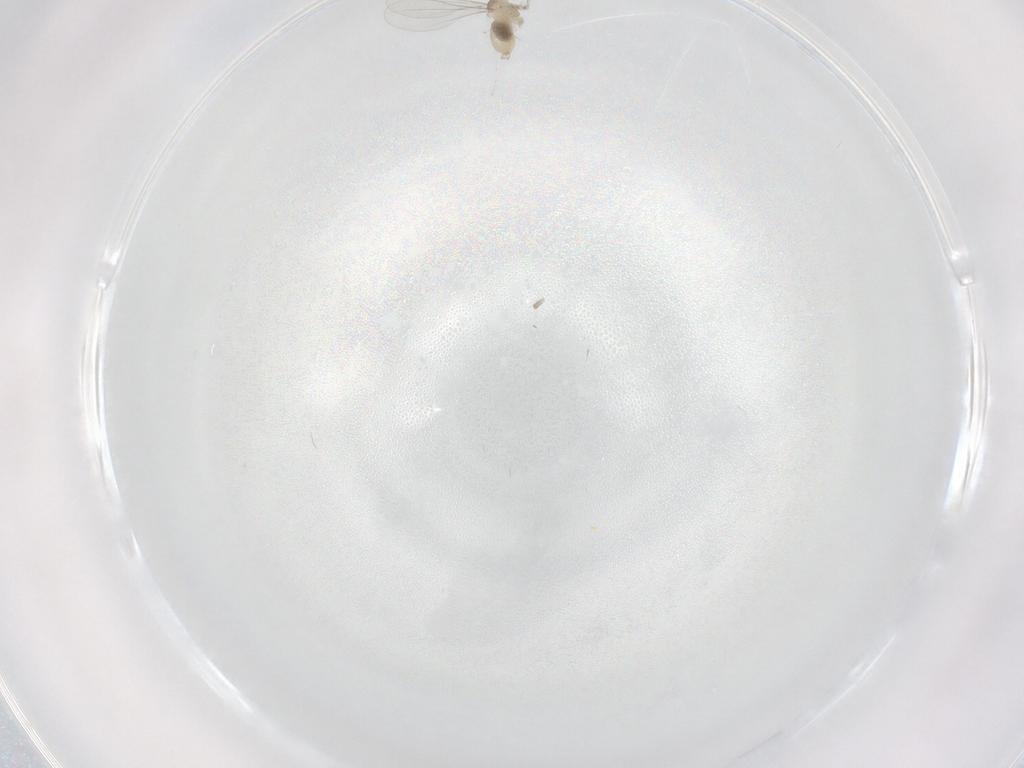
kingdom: Animalia
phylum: Arthropoda
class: Insecta
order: Diptera
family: Cecidomyiidae
